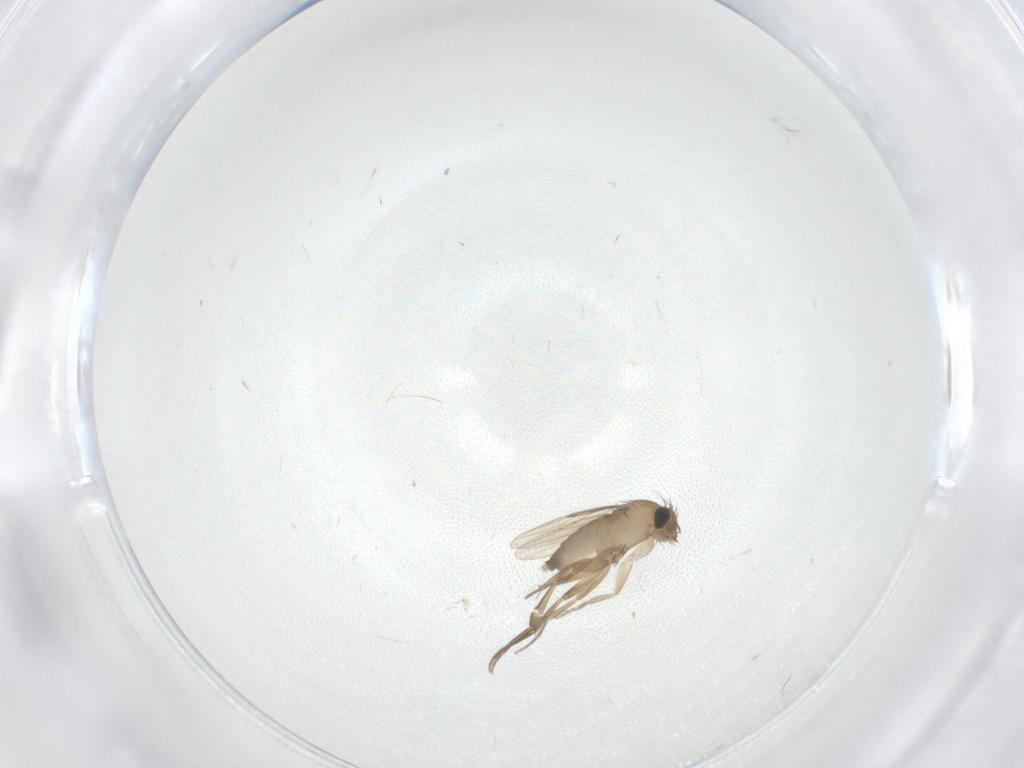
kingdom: Animalia
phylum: Arthropoda
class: Insecta
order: Diptera
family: Phoridae
